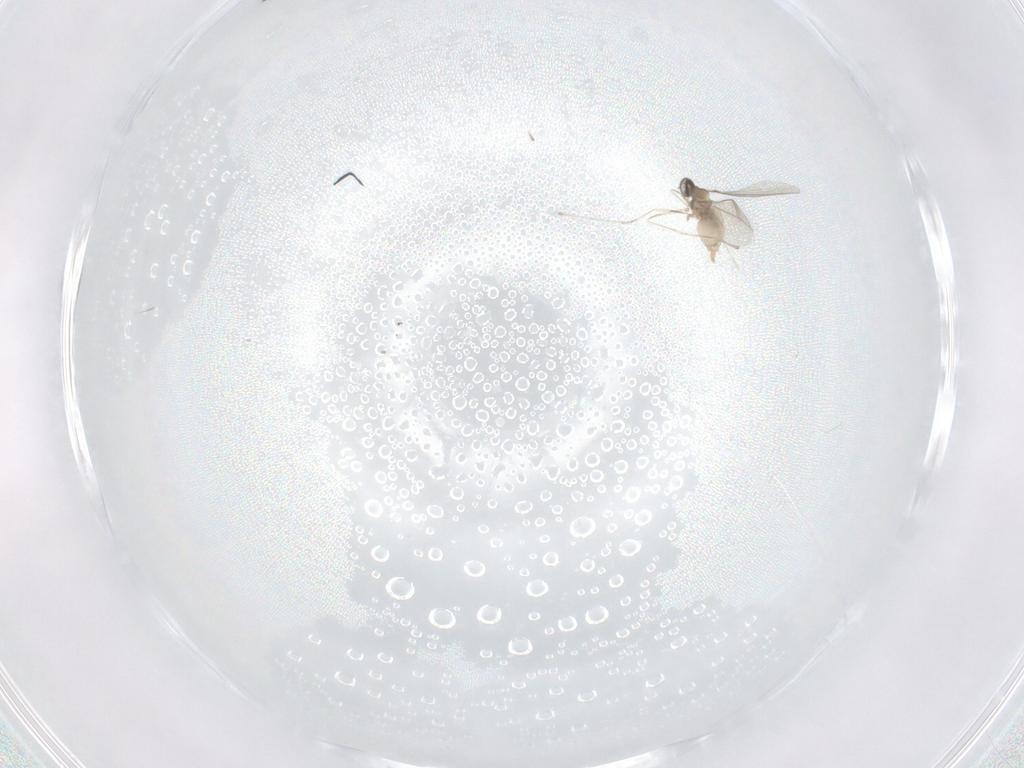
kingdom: Animalia
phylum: Arthropoda
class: Insecta
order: Diptera
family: Cecidomyiidae
